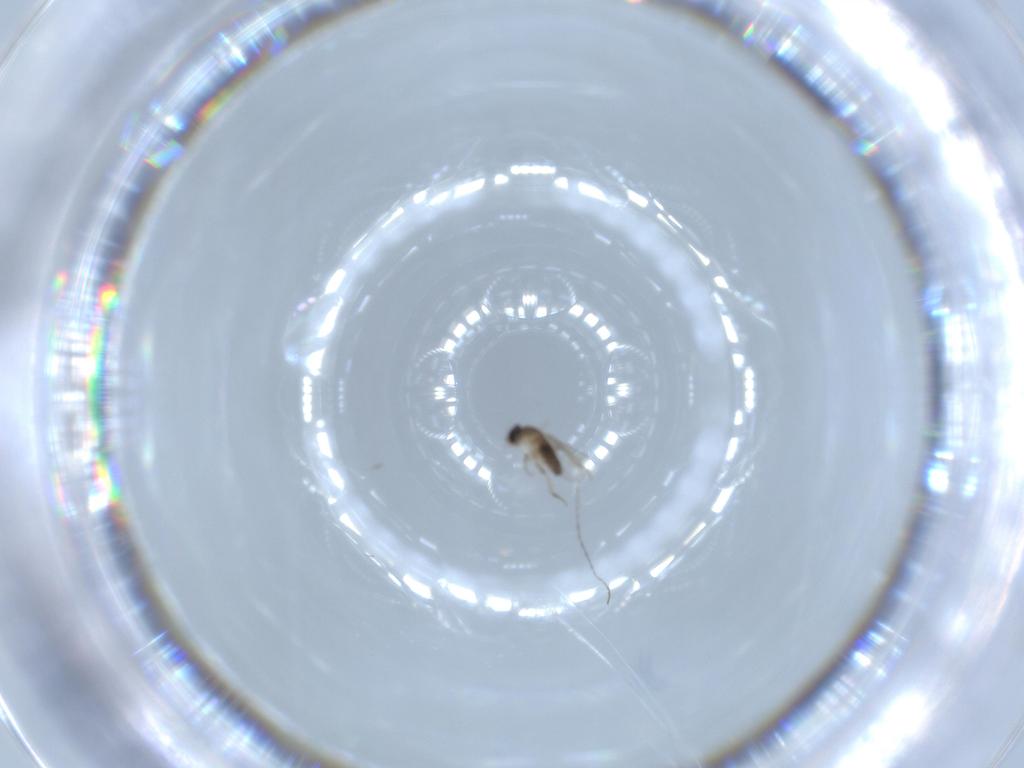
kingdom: Animalia
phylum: Arthropoda
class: Insecta
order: Diptera
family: Phoridae
